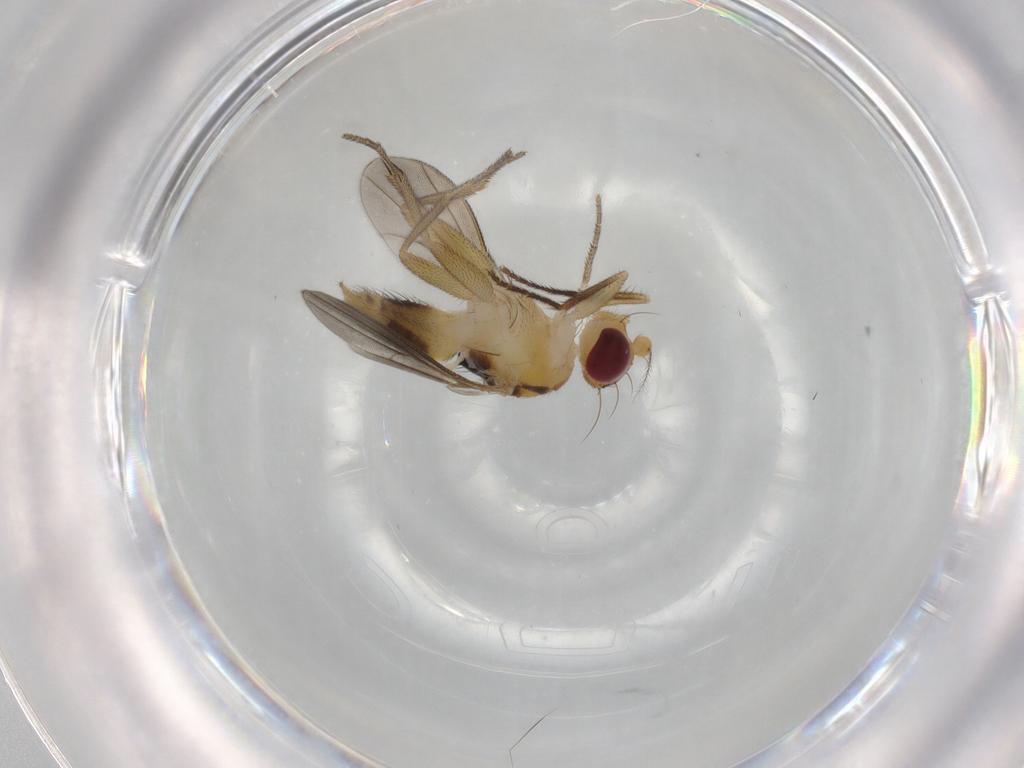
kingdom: Animalia
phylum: Arthropoda
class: Insecta
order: Diptera
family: Clusiidae
